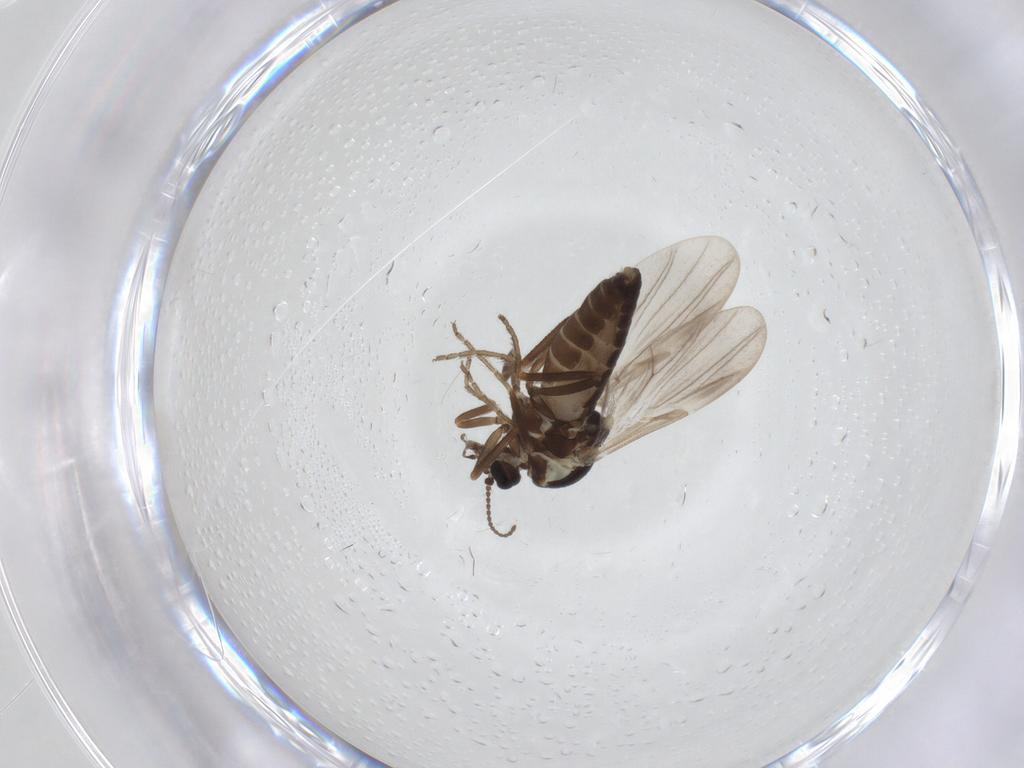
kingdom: Animalia
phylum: Arthropoda
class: Insecta
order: Diptera
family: Ceratopogonidae
